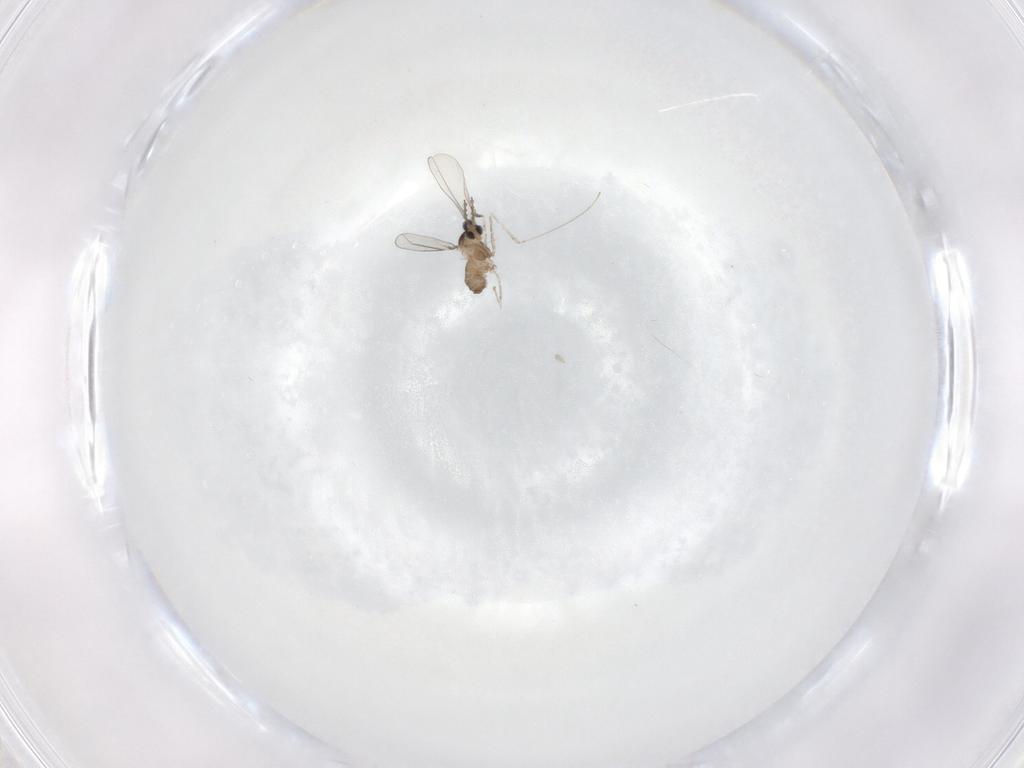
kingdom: Animalia
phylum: Arthropoda
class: Insecta
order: Diptera
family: Cecidomyiidae
